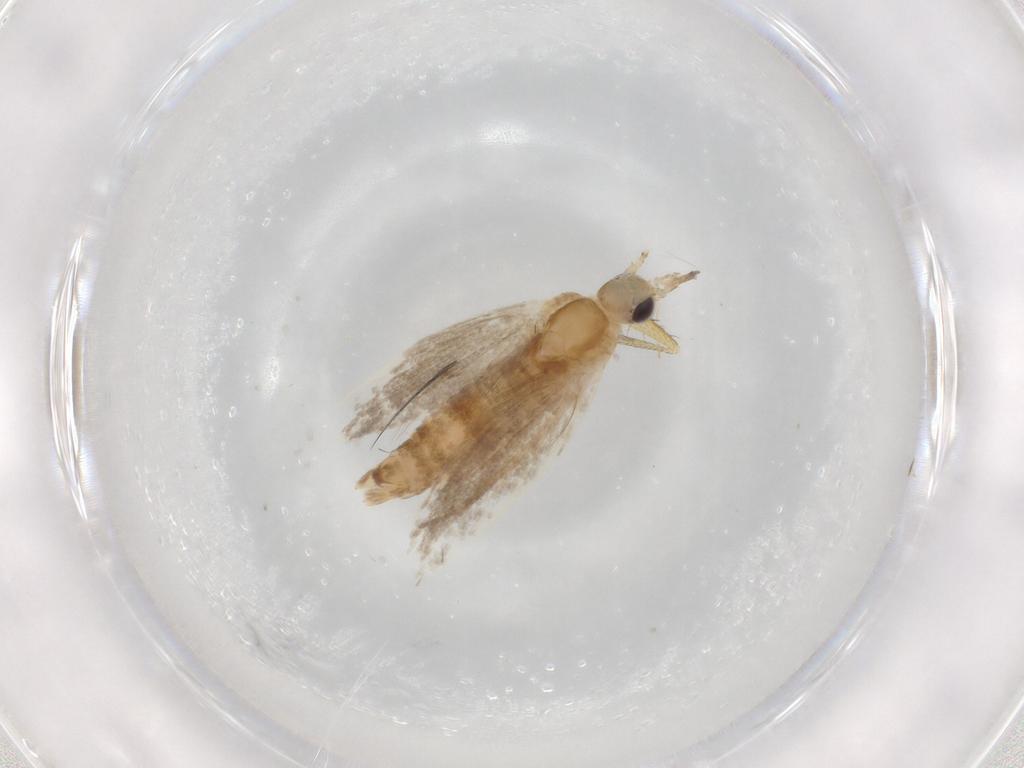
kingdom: Animalia
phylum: Arthropoda
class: Insecta
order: Lepidoptera
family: Plutellidae
